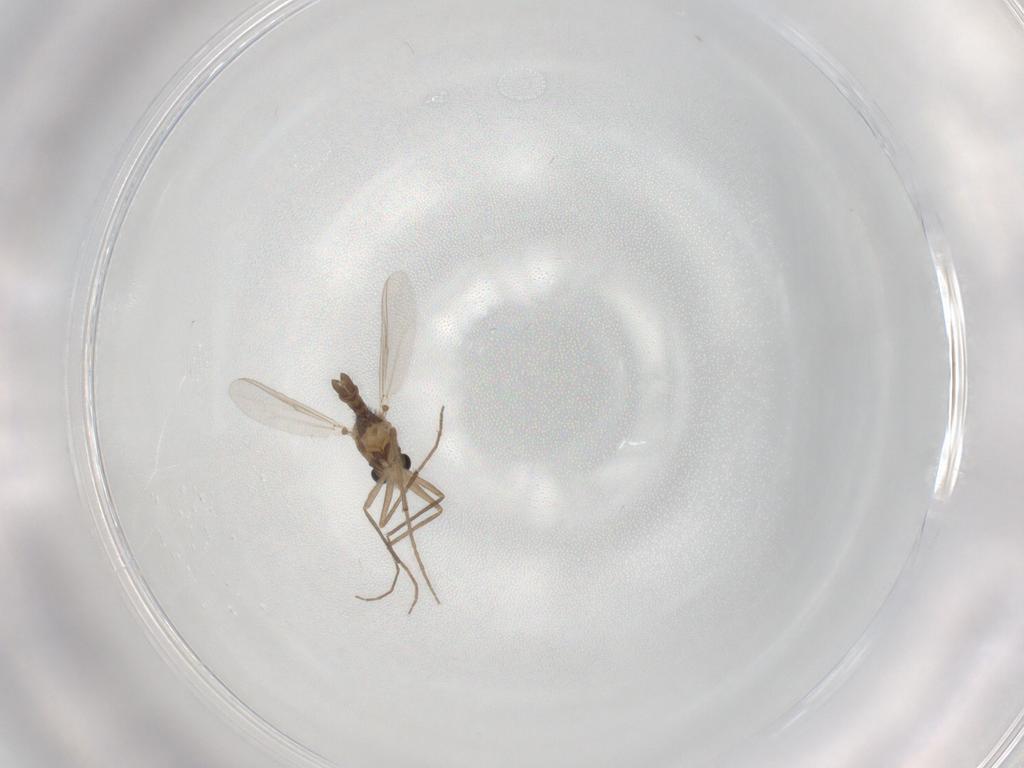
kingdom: Animalia
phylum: Arthropoda
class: Insecta
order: Diptera
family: Chironomidae
